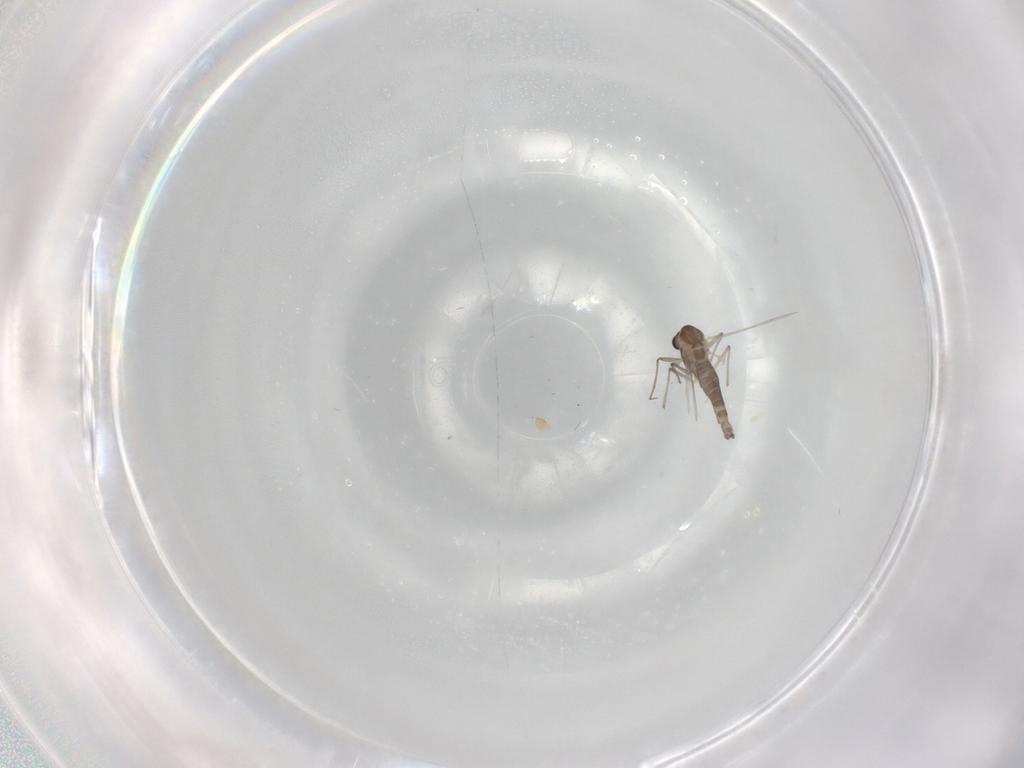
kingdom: Animalia
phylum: Arthropoda
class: Insecta
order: Diptera
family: Chironomidae
